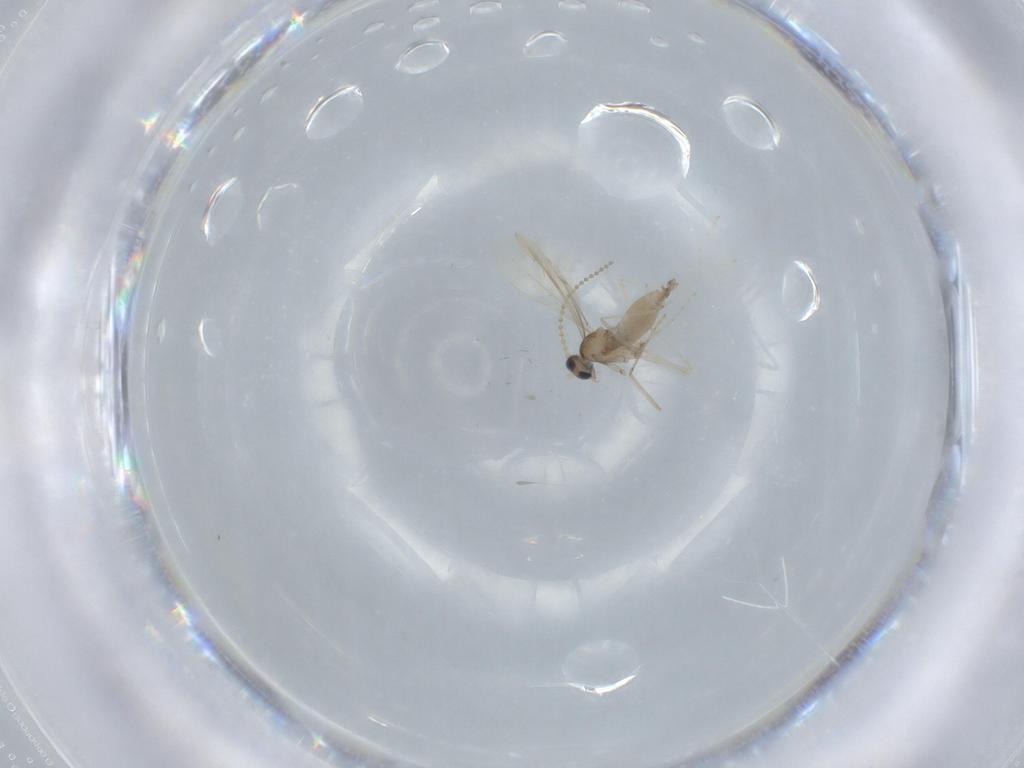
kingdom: Animalia
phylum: Arthropoda
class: Insecta
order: Diptera
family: Cecidomyiidae
